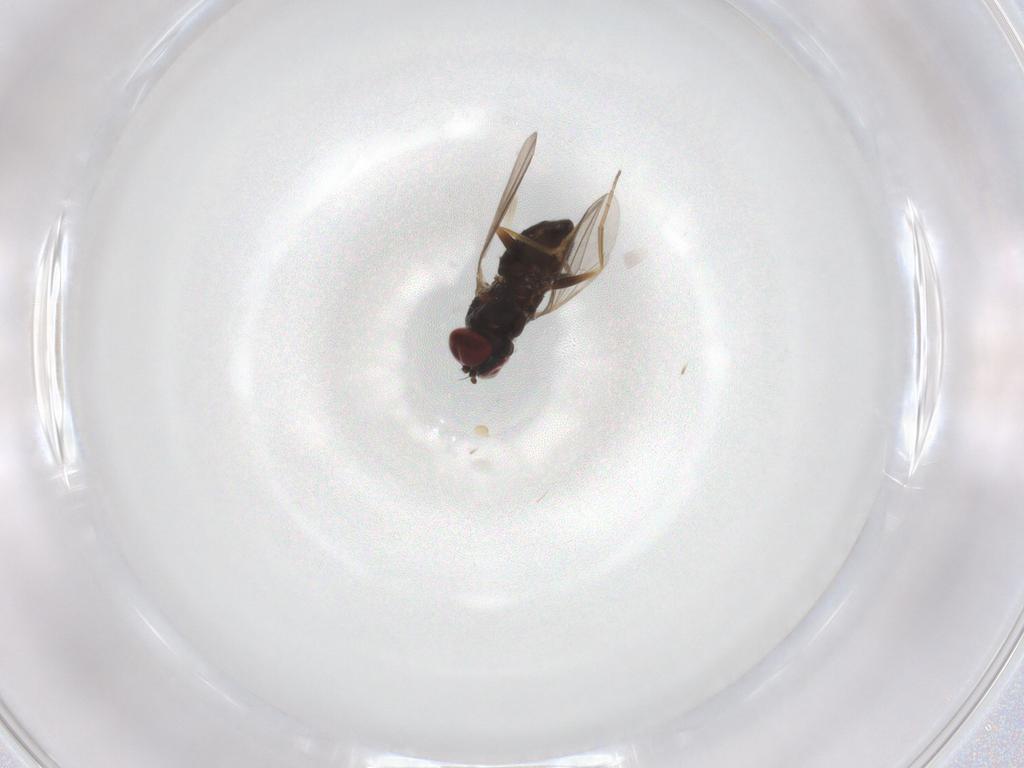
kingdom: Animalia
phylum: Arthropoda
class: Insecta
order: Diptera
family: Dolichopodidae
